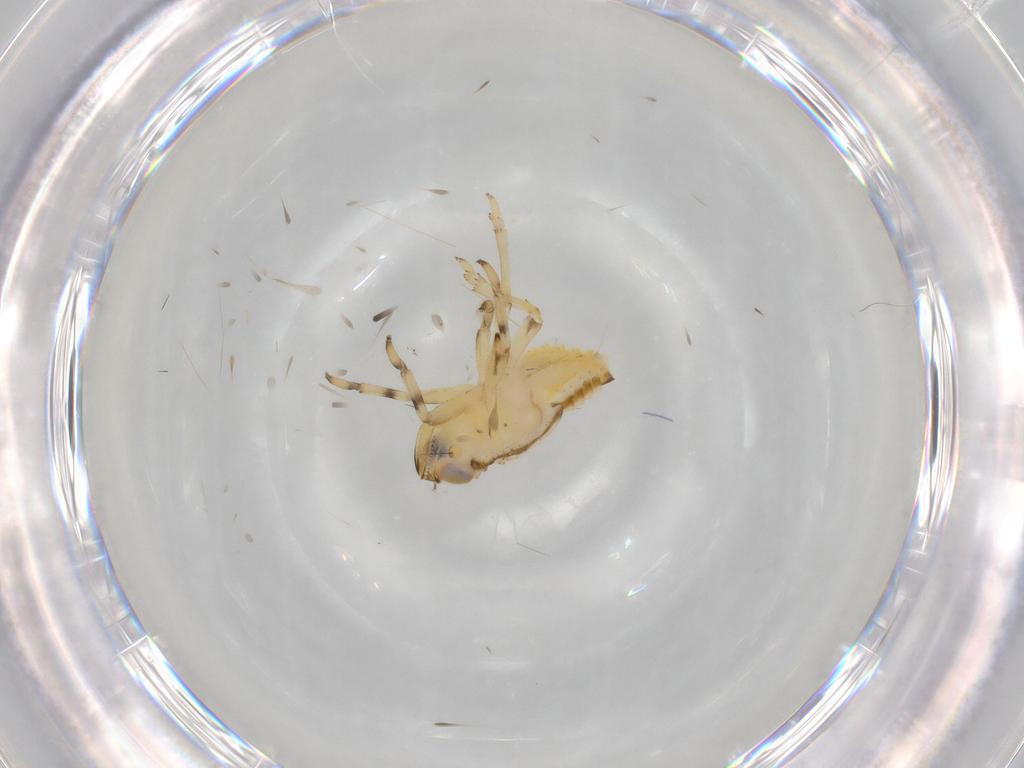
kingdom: Animalia
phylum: Arthropoda
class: Insecta
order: Hemiptera
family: Issidae
